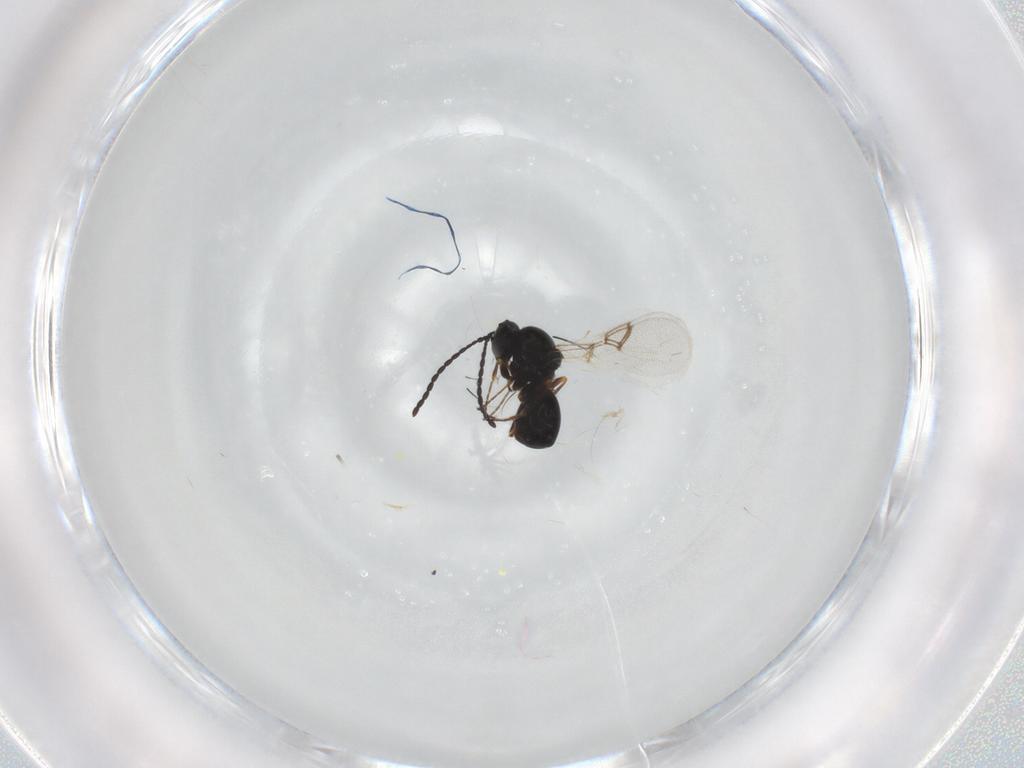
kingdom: Animalia
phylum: Arthropoda
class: Insecta
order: Hymenoptera
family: Figitidae
